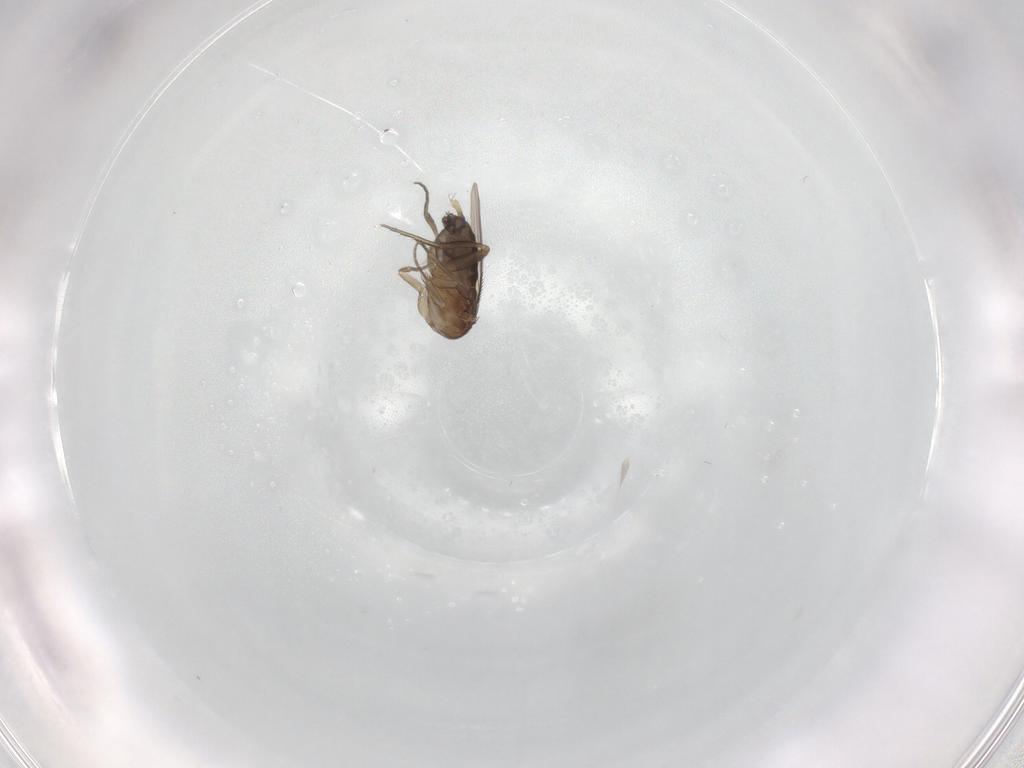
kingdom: Animalia
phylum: Arthropoda
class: Insecta
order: Diptera
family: Phoridae
